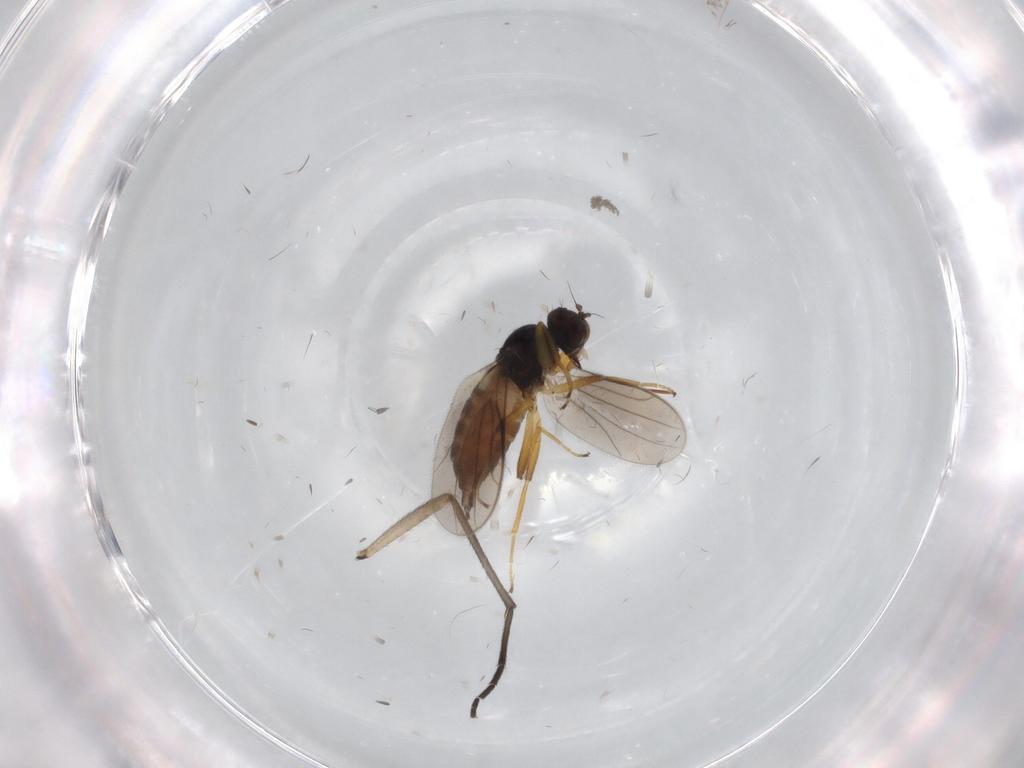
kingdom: Animalia
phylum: Arthropoda
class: Insecta
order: Diptera
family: Hybotidae
